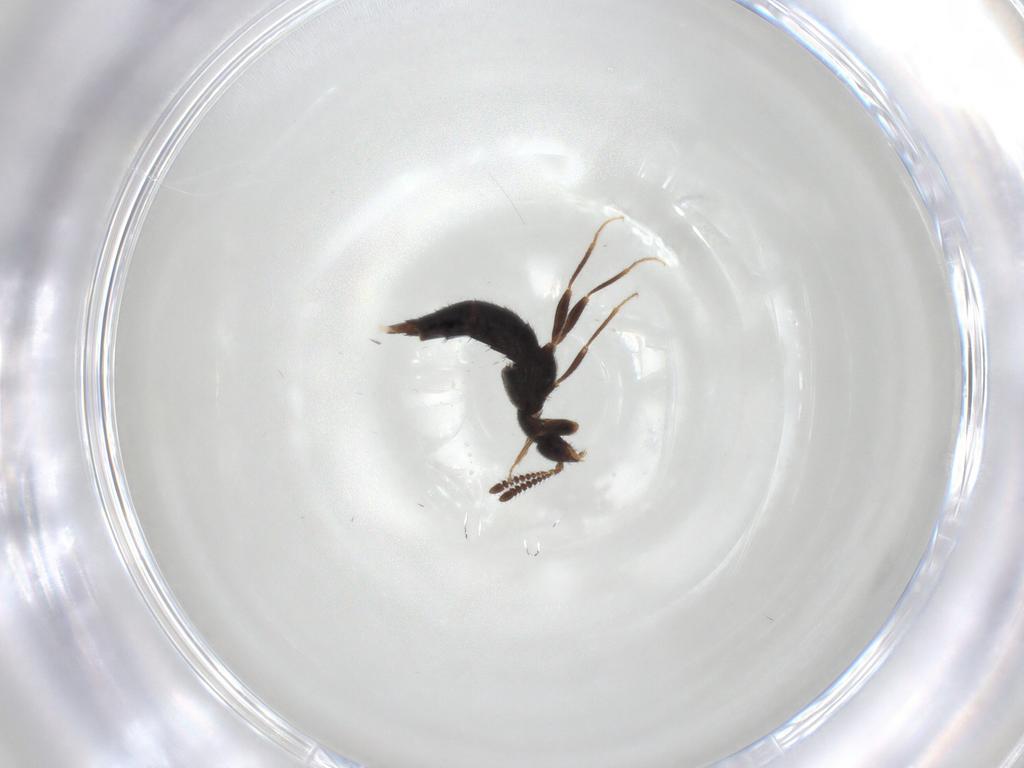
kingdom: Animalia
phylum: Arthropoda
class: Insecta
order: Coleoptera
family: Staphylinidae
